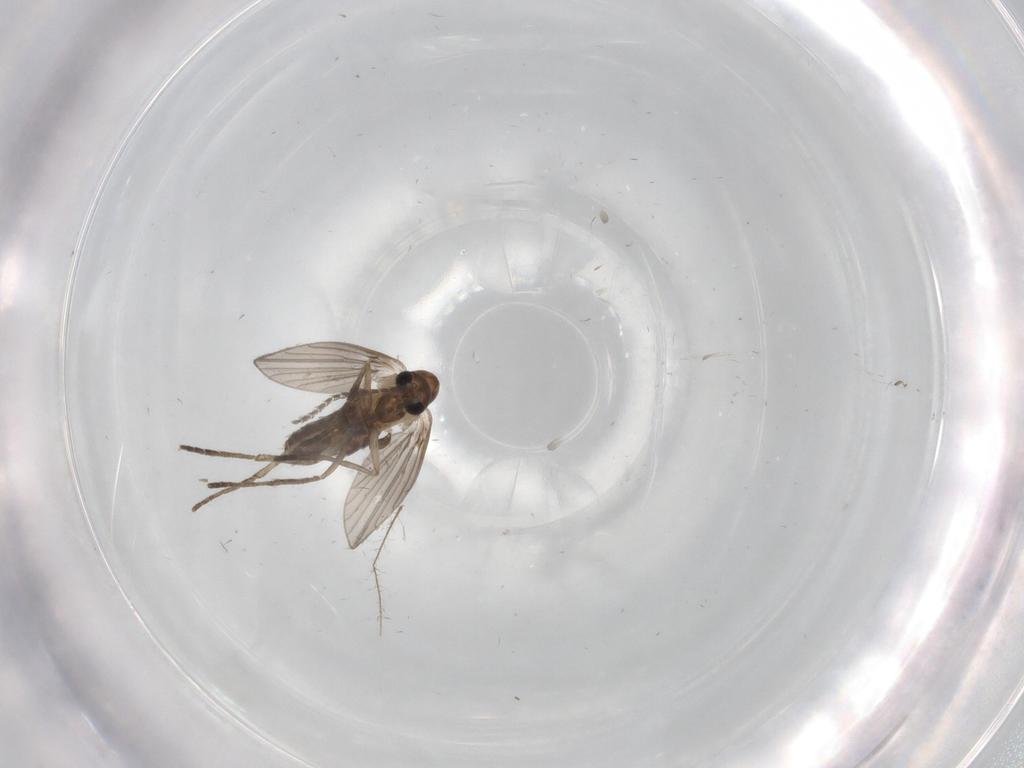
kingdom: Animalia
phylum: Arthropoda
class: Insecta
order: Diptera
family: Psychodidae
